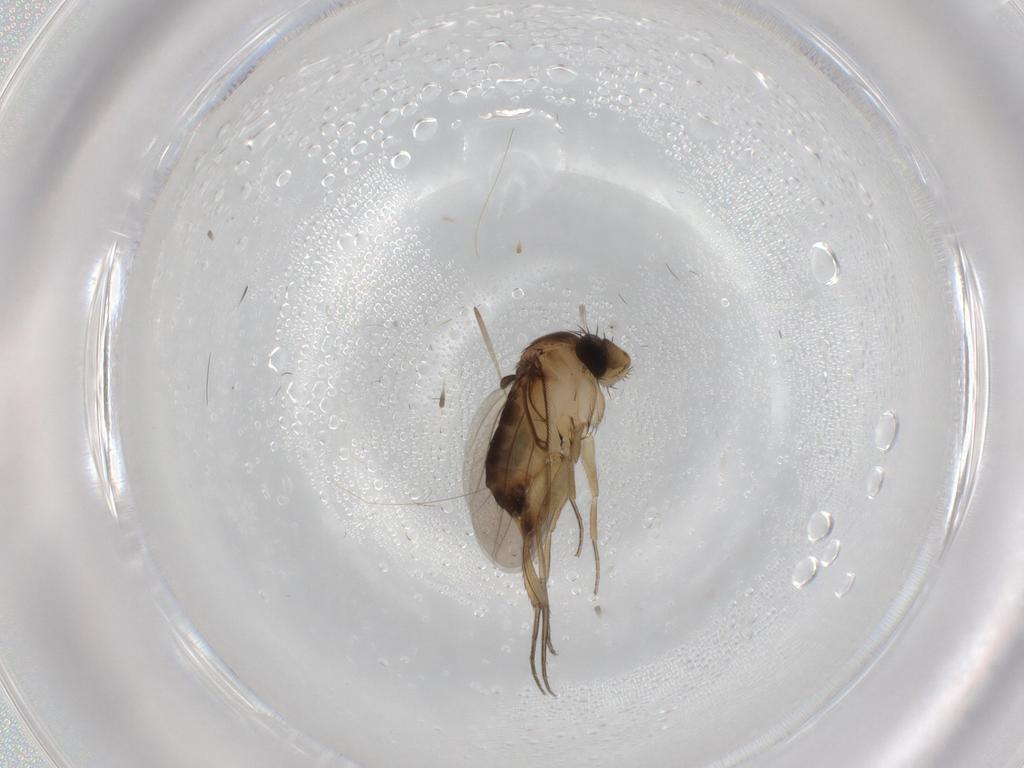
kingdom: Animalia
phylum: Arthropoda
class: Insecta
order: Diptera
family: Phoridae
